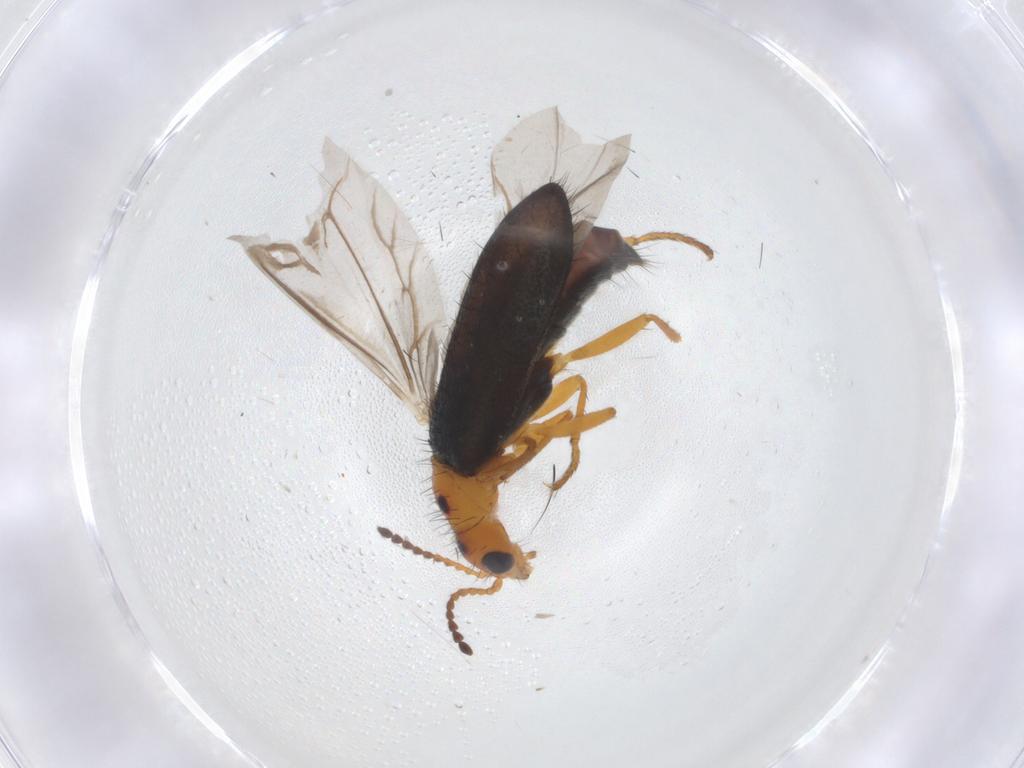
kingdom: Animalia
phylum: Arthropoda
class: Insecta
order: Coleoptera
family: Melyridae
